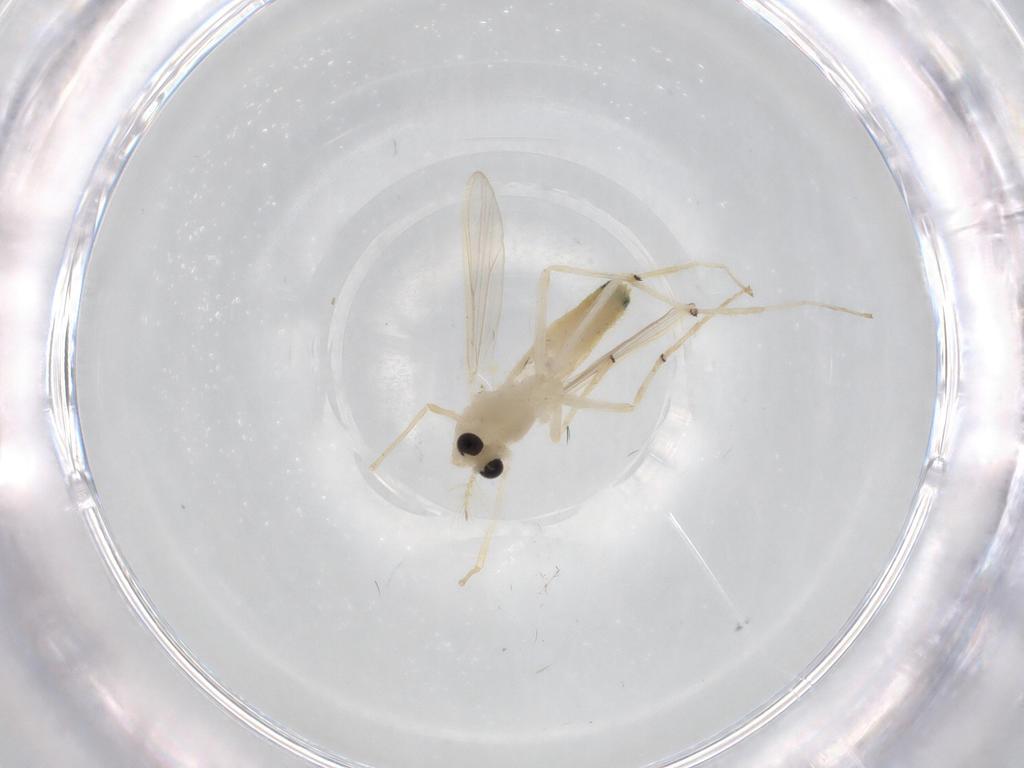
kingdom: Animalia
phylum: Arthropoda
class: Insecta
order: Diptera
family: Chironomidae
